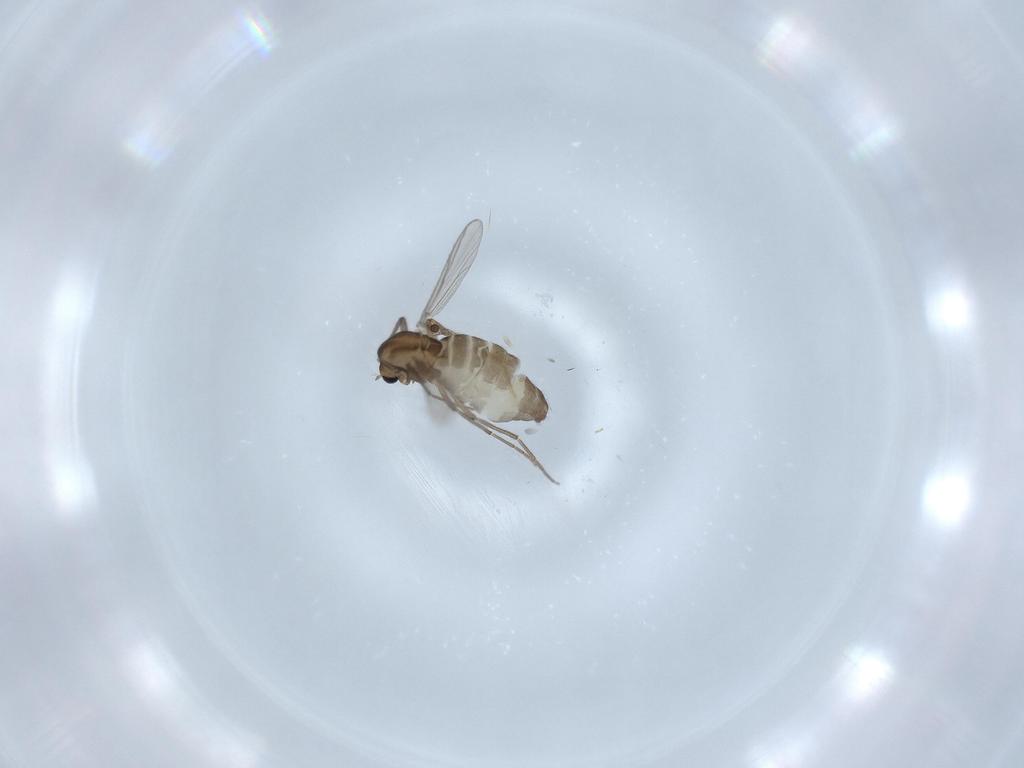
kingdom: Animalia
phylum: Arthropoda
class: Insecta
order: Diptera
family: Chironomidae
